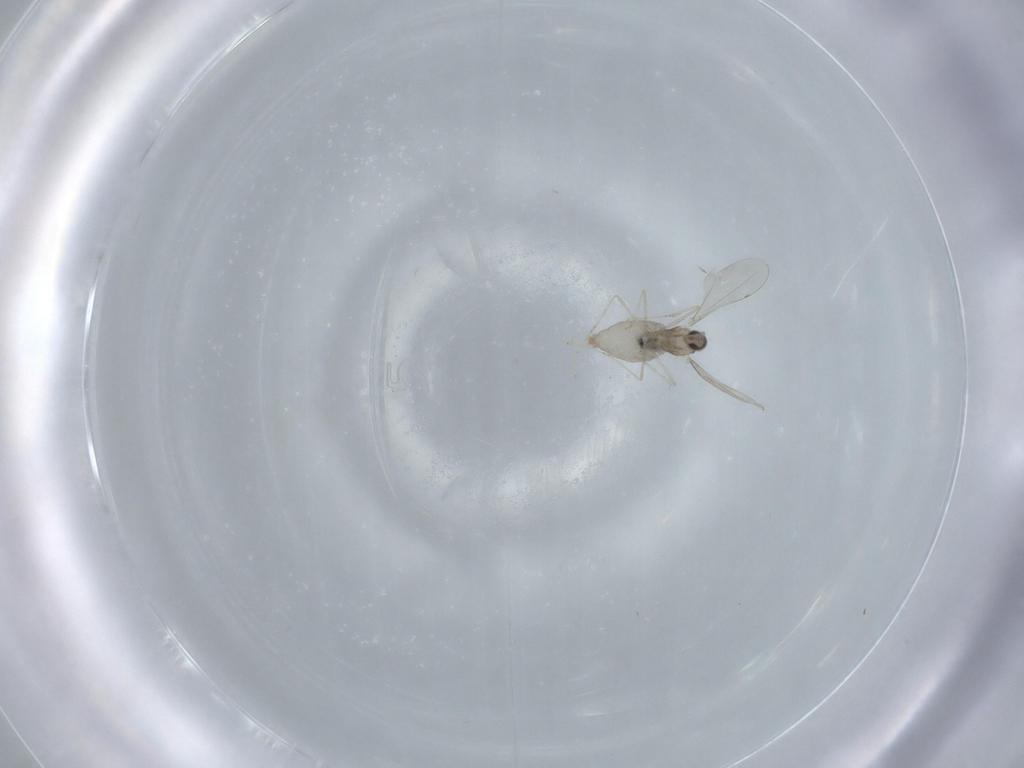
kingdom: Animalia
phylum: Arthropoda
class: Insecta
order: Diptera
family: Cecidomyiidae
